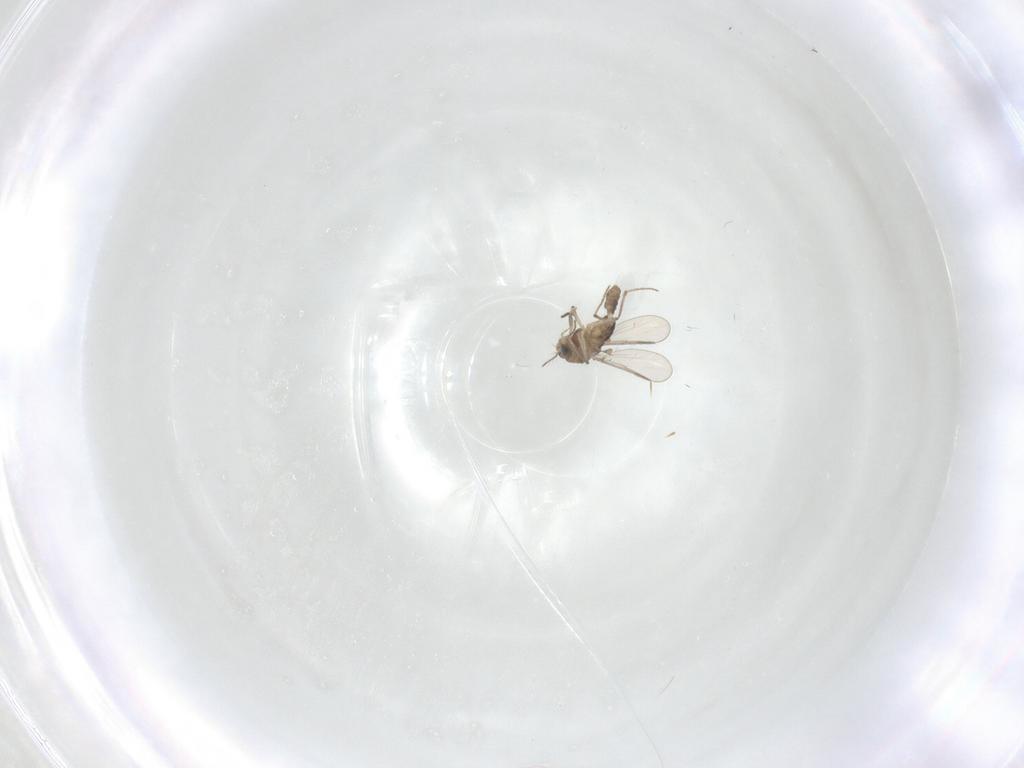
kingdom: Animalia
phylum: Arthropoda
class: Insecta
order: Diptera
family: Chironomidae
